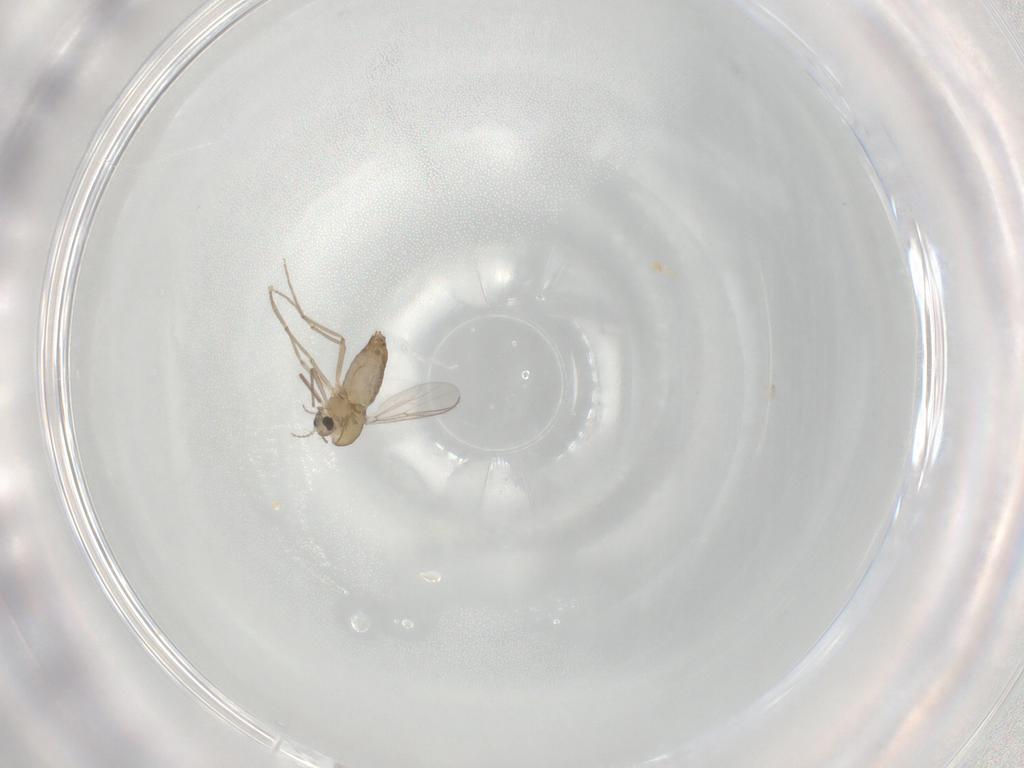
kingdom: Animalia
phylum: Arthropoda
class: Insecta
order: Diptera
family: Chironomidae
